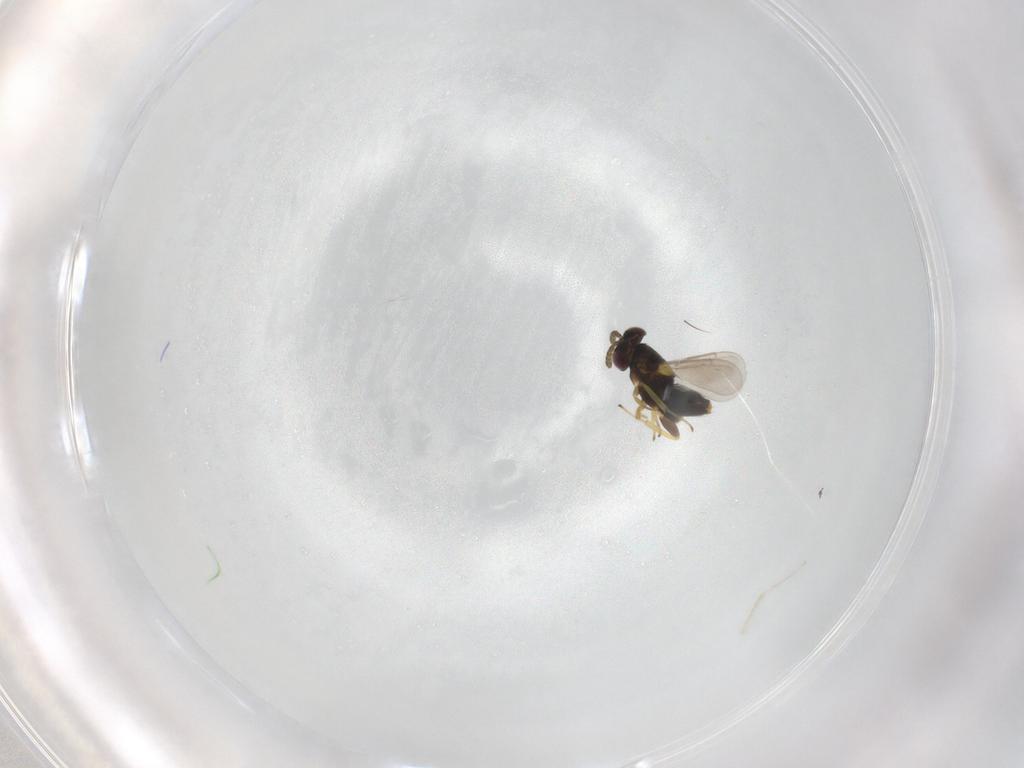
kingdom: Animalia
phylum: Arthropoda
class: Insecta
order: Hymenoptera
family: Aphelinidae
